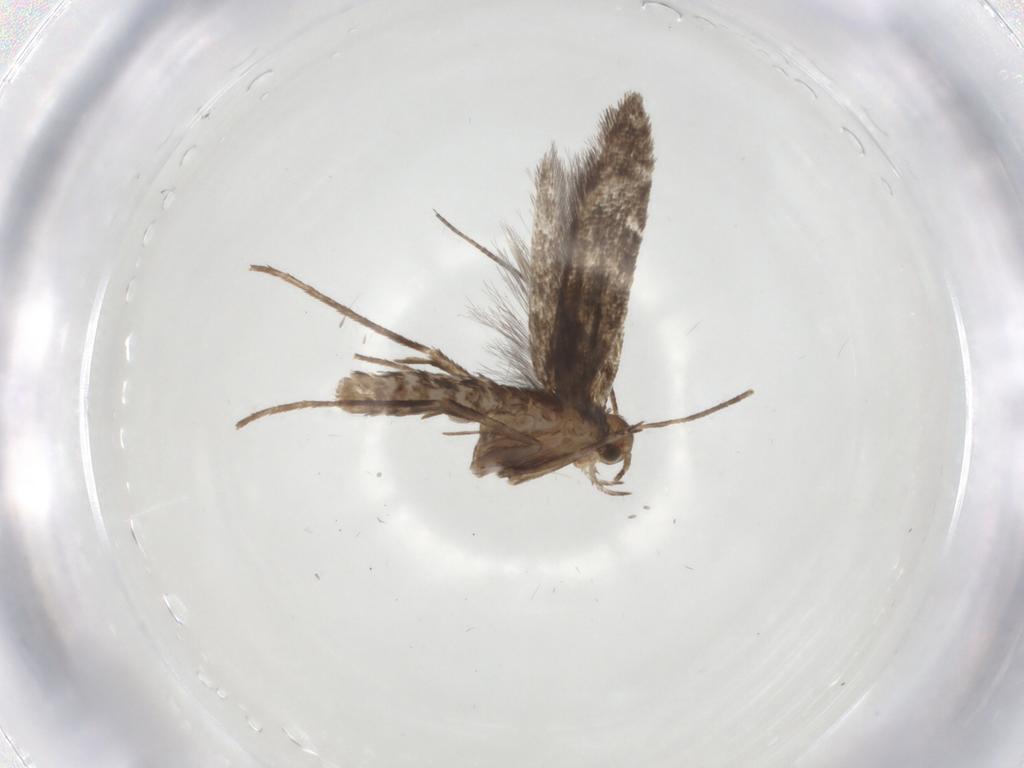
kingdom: Animalia
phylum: Arthropoda
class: Insecta
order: Lepidoptera
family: Gracillariidae
